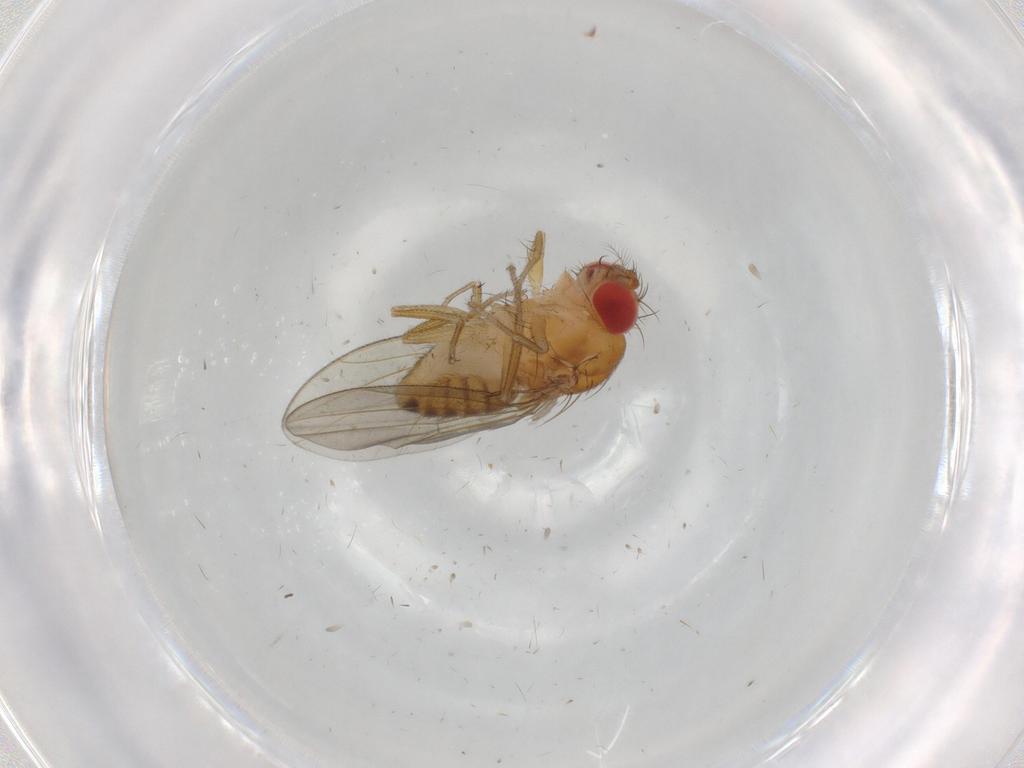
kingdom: Animalia
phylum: Arthropoda
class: Insecta
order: Diptera
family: Drosophilidae
